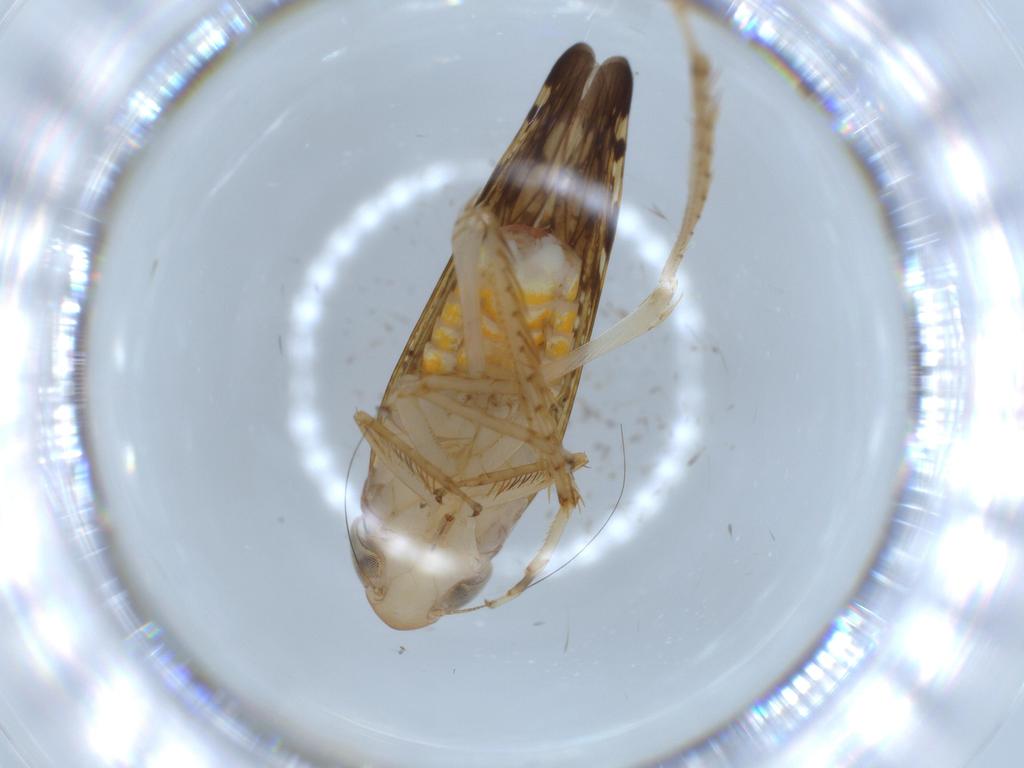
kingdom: Animalia
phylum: Arthropoda
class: Insecta
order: Hemiptera
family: Cicadellidae
